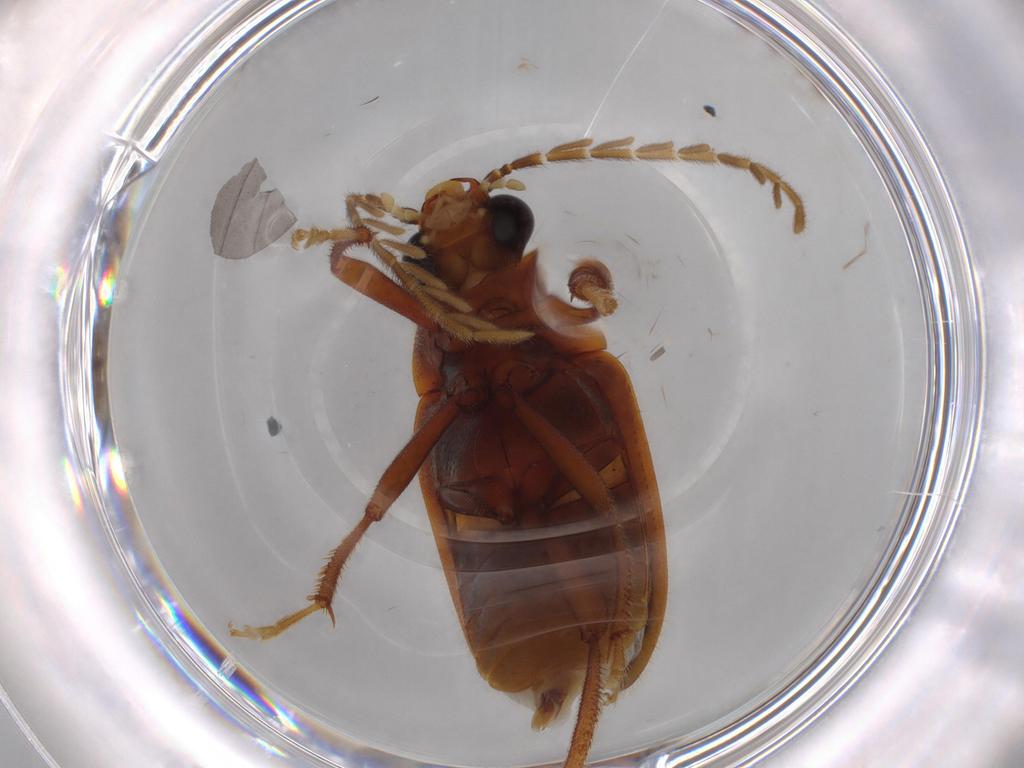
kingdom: Animalia
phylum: Arthropoda
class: Insecta
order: Coleoptera
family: Ptilodactylidae
